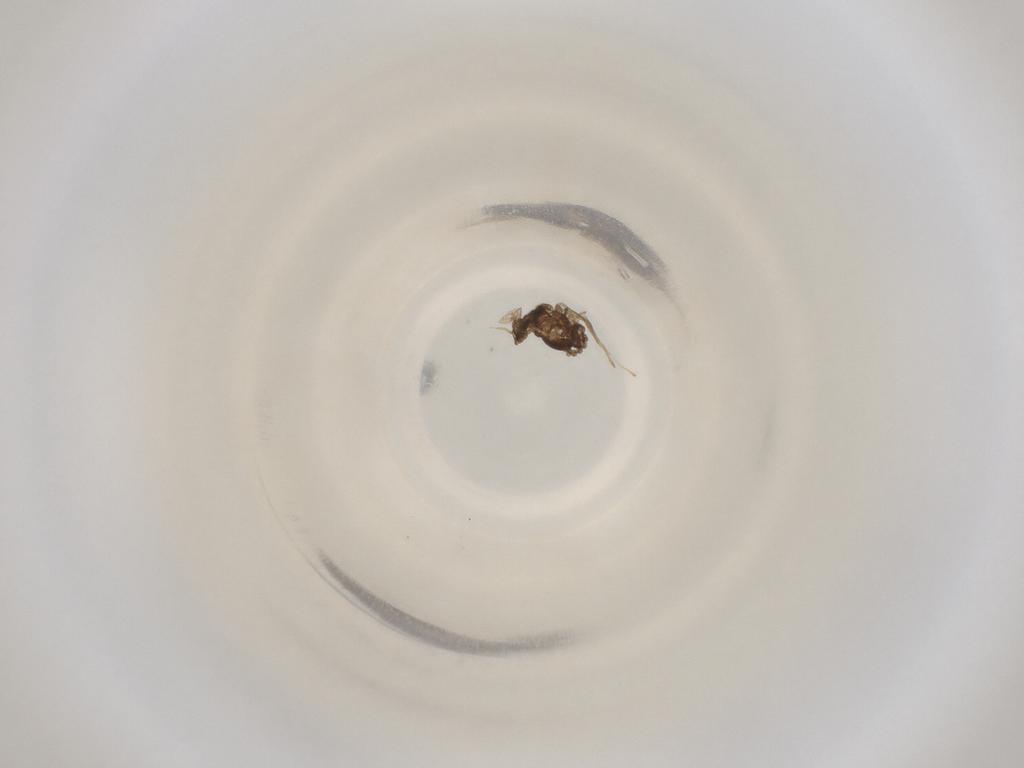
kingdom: Animalia
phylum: Arthropoda
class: Insecta
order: Diptera
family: Cecidomyiidae
